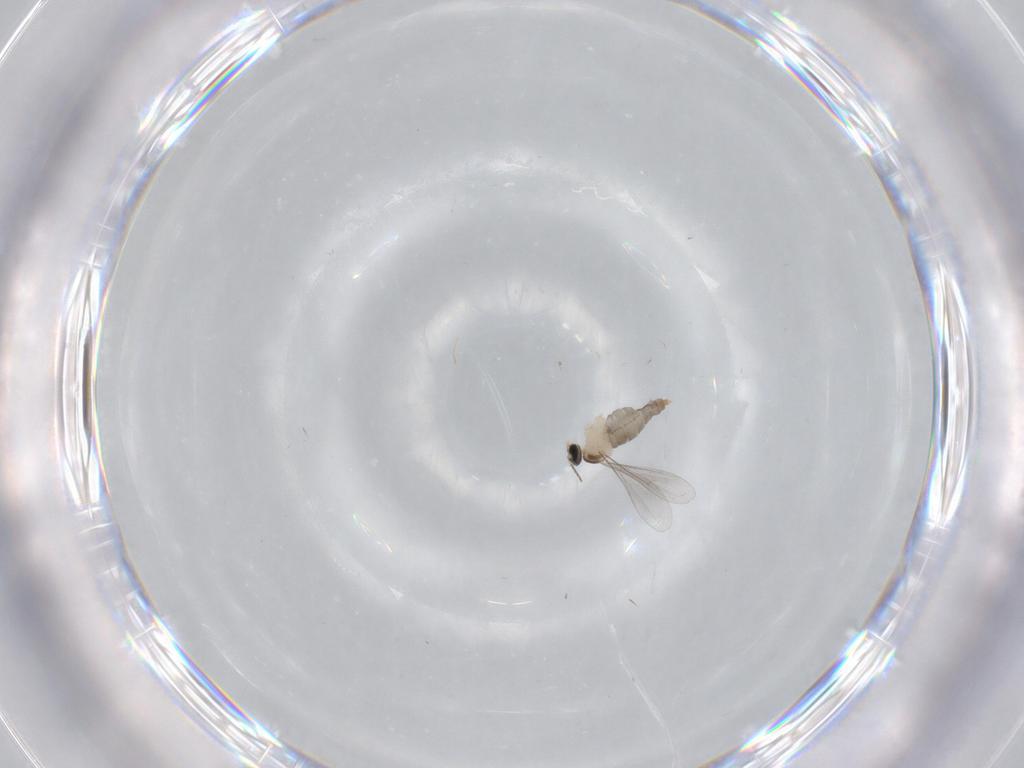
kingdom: Animalia
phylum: Arthropoda
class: Insecta
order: Diptera
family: Cecidomyiidae
